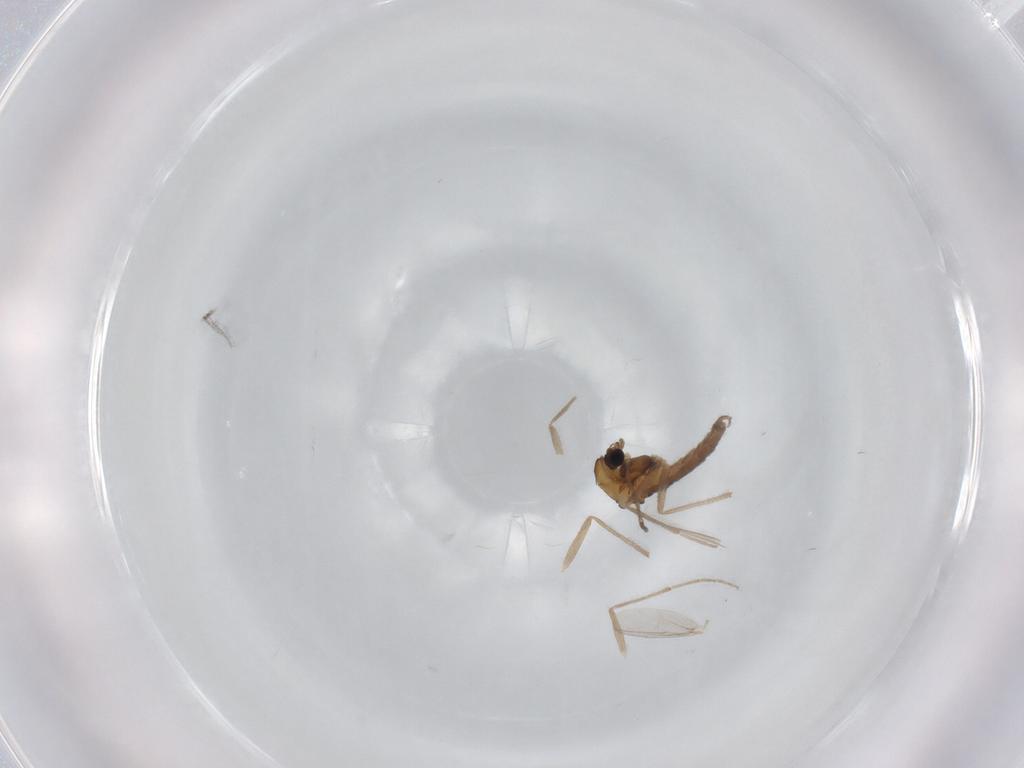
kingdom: Animalia
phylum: Arthropoda
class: Insecta
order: Diptera
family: Chironomidae
